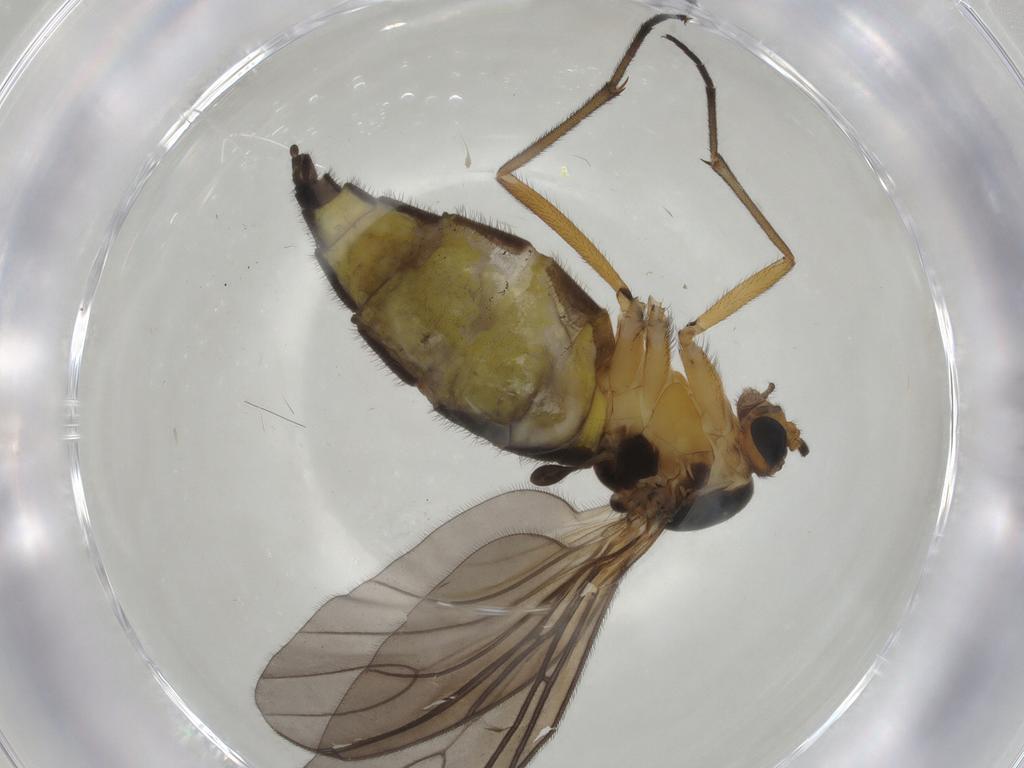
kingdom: Animalia
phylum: Arthropoda
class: Insecta
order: Diptera
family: Sciaridae
